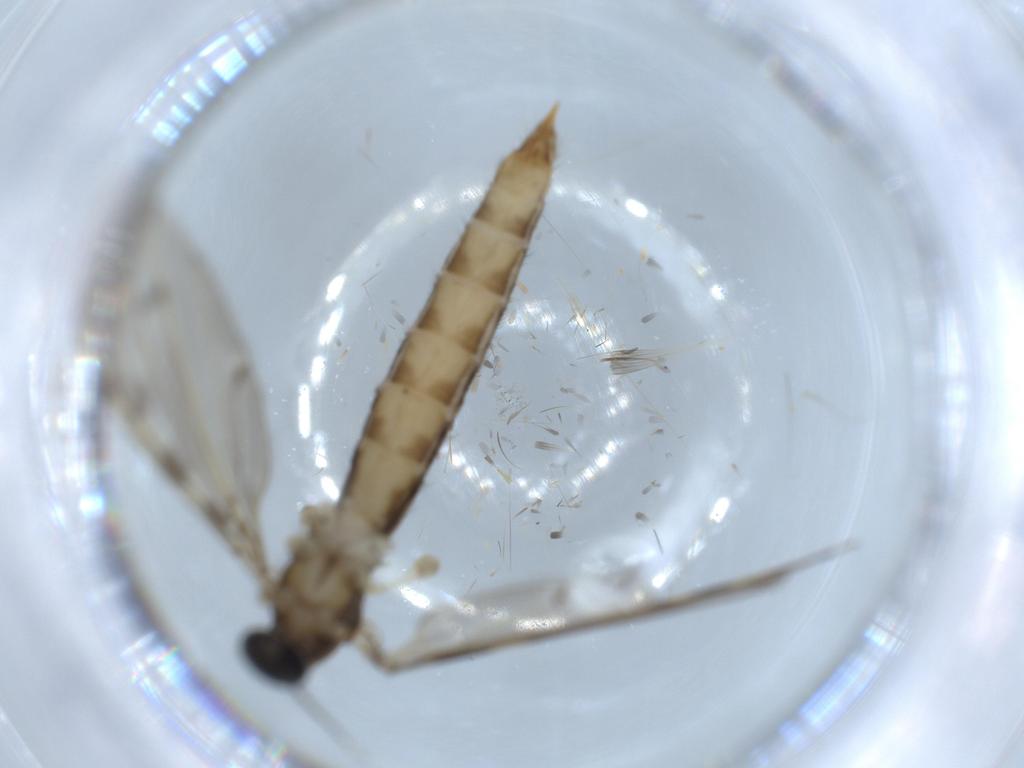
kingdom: Animalia
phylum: Arthropoda
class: Insecta
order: Diptera
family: Limoniidae
